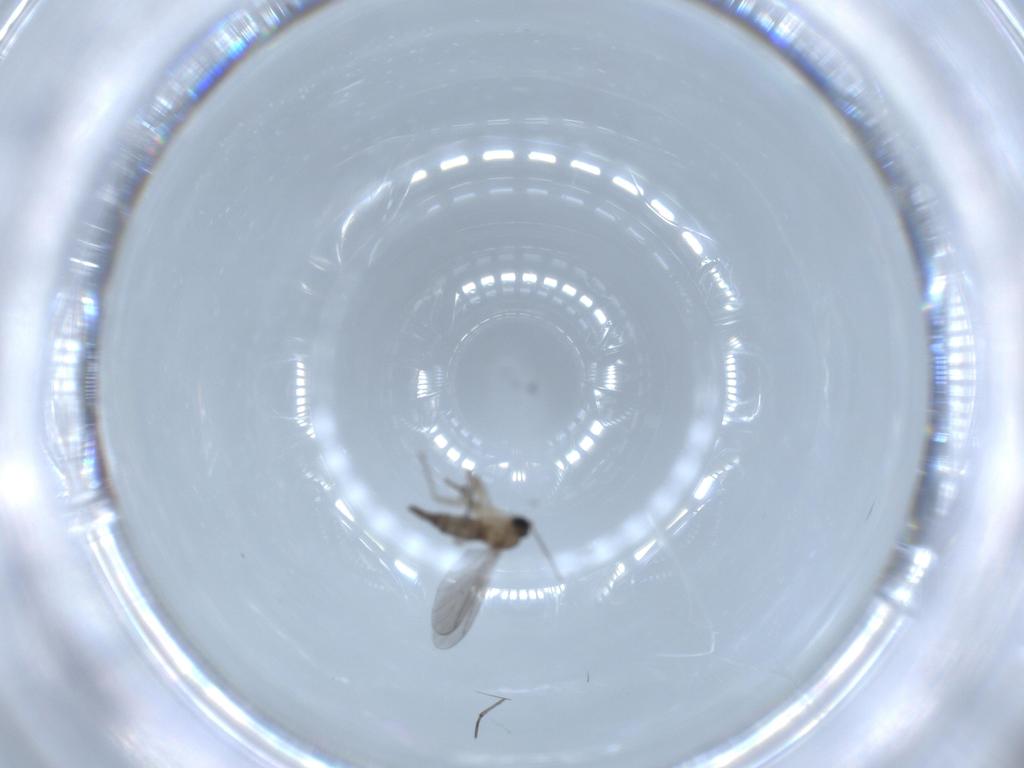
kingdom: Animalia
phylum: Arthropoda
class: Insecta
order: Diptera
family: Sciaridae
